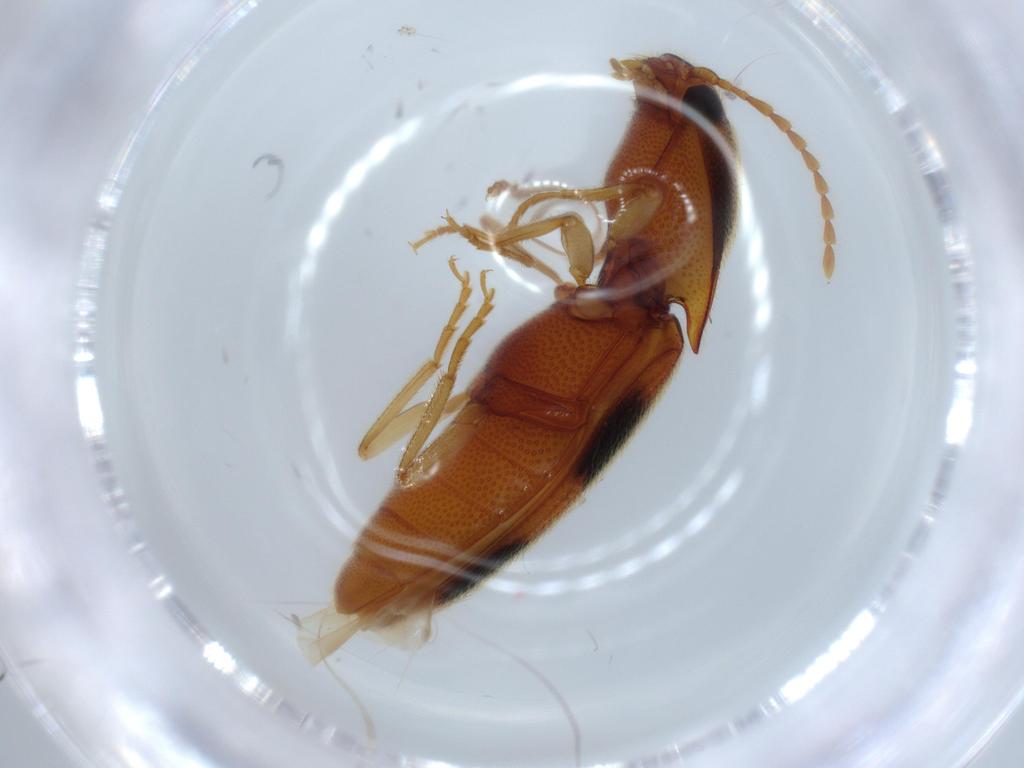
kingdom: Animalia
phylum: Arthropoda
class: Insecta
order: Coleoptera
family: Elateridae
